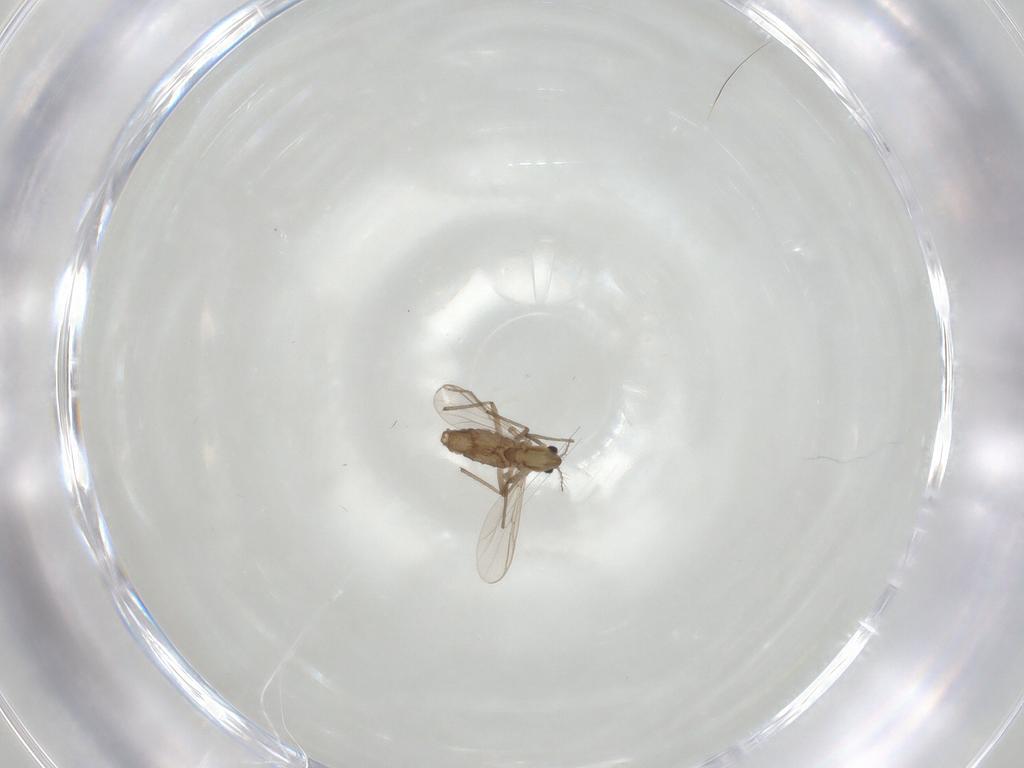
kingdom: Animalia
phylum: Arthropoda
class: Insecta
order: Diptera
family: Chironomidae
